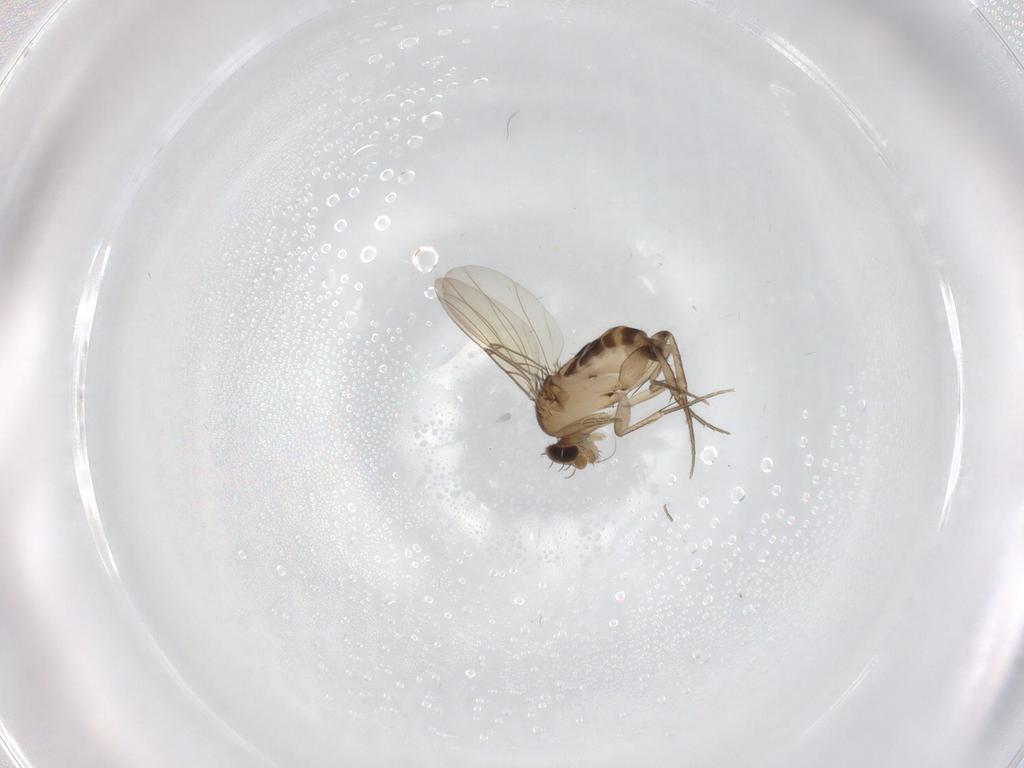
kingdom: Animalia
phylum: Arthropoda
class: Insecta
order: Diptera
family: Phoridae
